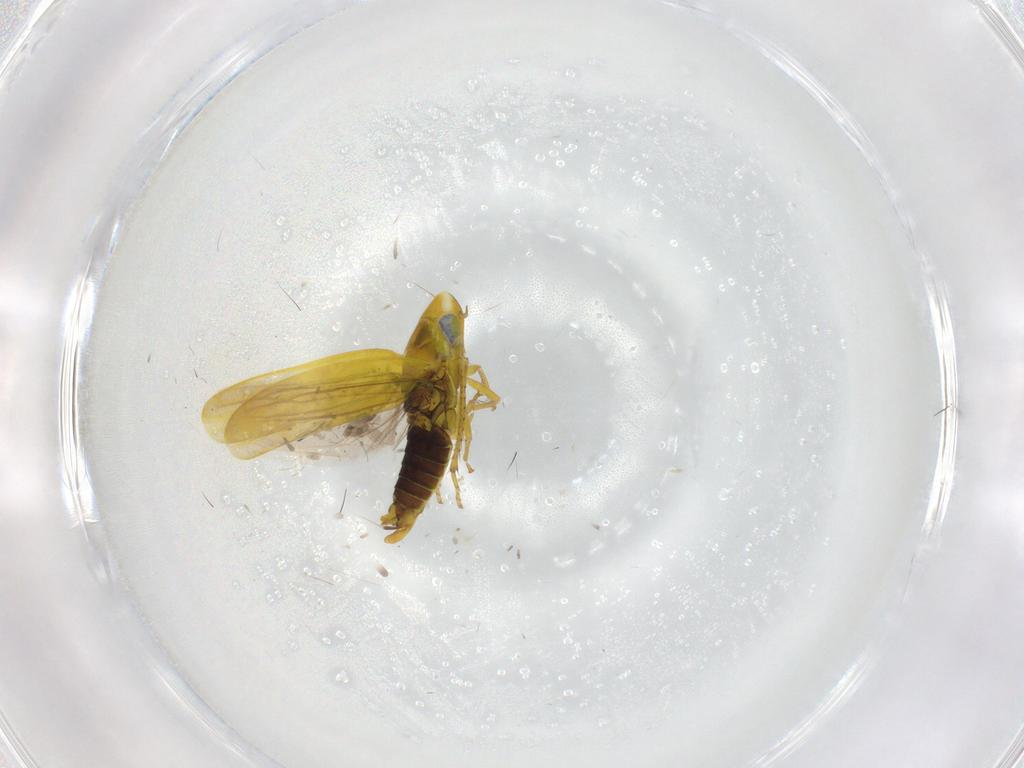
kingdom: Animalia
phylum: Arthropoda
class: Insecta
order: Hemiptera
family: Cicadellidae
